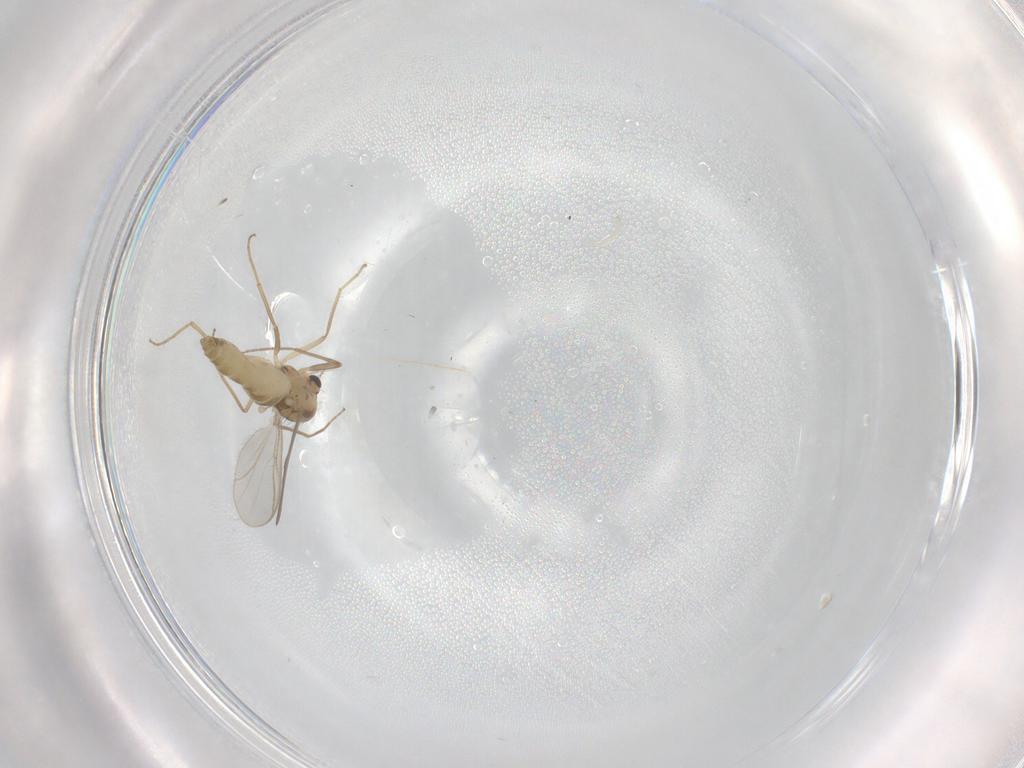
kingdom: Animalia
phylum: Arthropoda
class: Insecta
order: Diptera
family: Chironomidae
